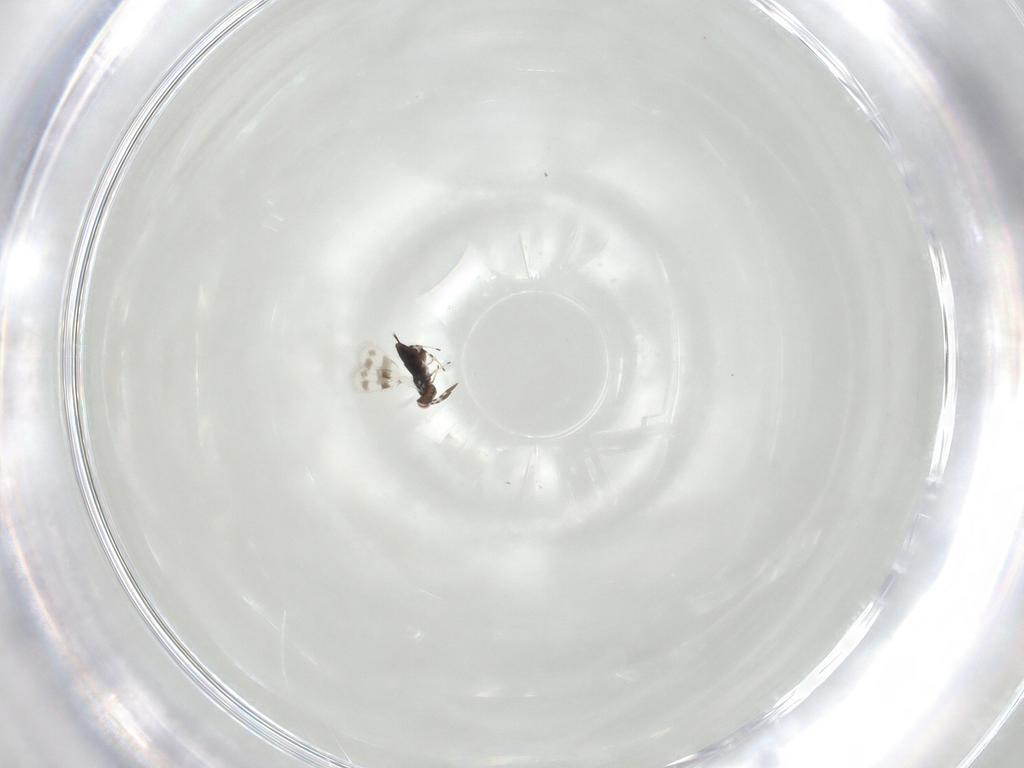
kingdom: Animalia
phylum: Arthropoda
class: Insecta
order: Hymenoptera
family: Azotidae
